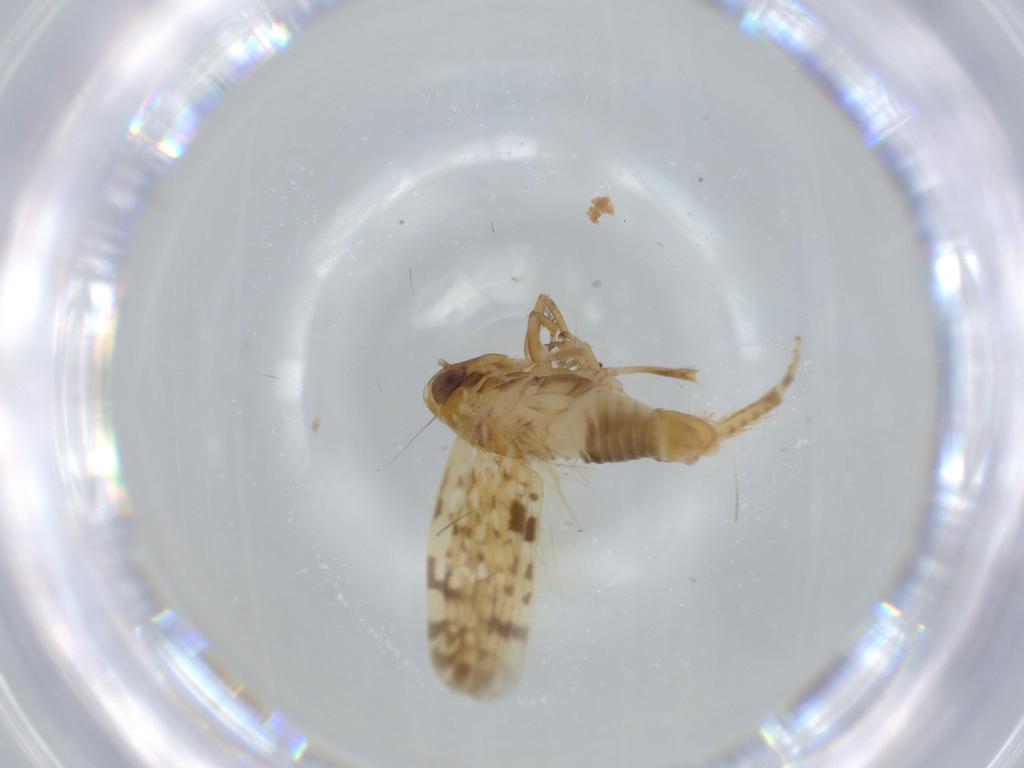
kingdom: Animalia
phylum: Arthropoda
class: Insecta
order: Hemiptera
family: Cicadellidae
